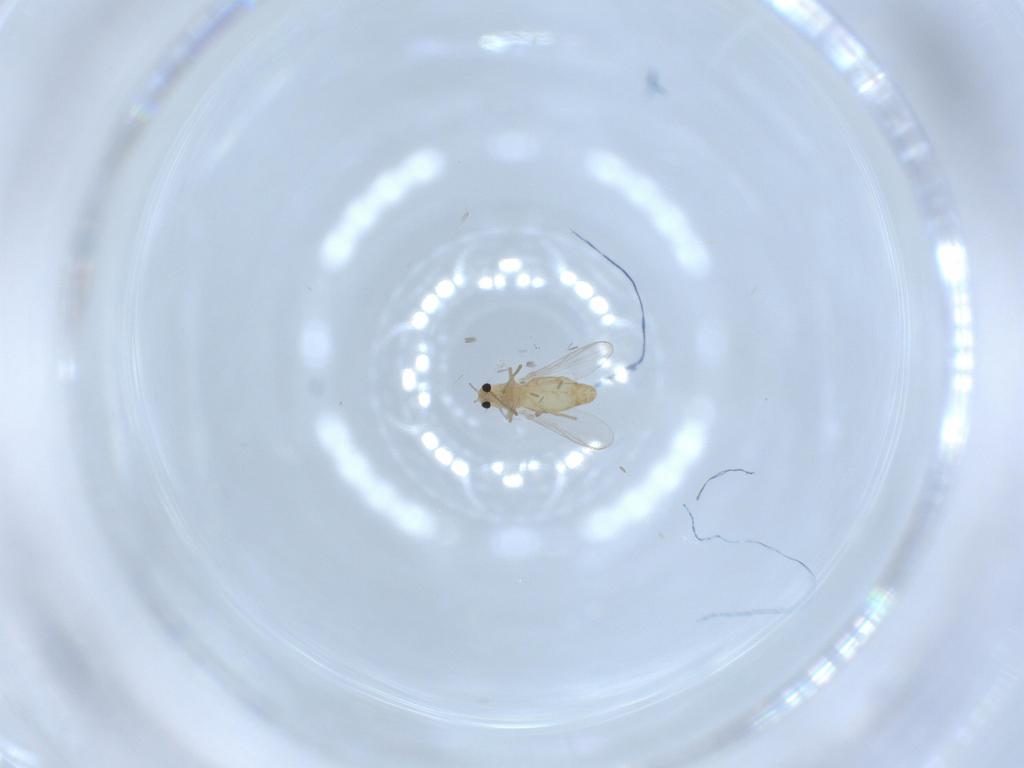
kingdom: Animalia
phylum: Arthropoda
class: Insecta
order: Diptera
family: Chironomidae
